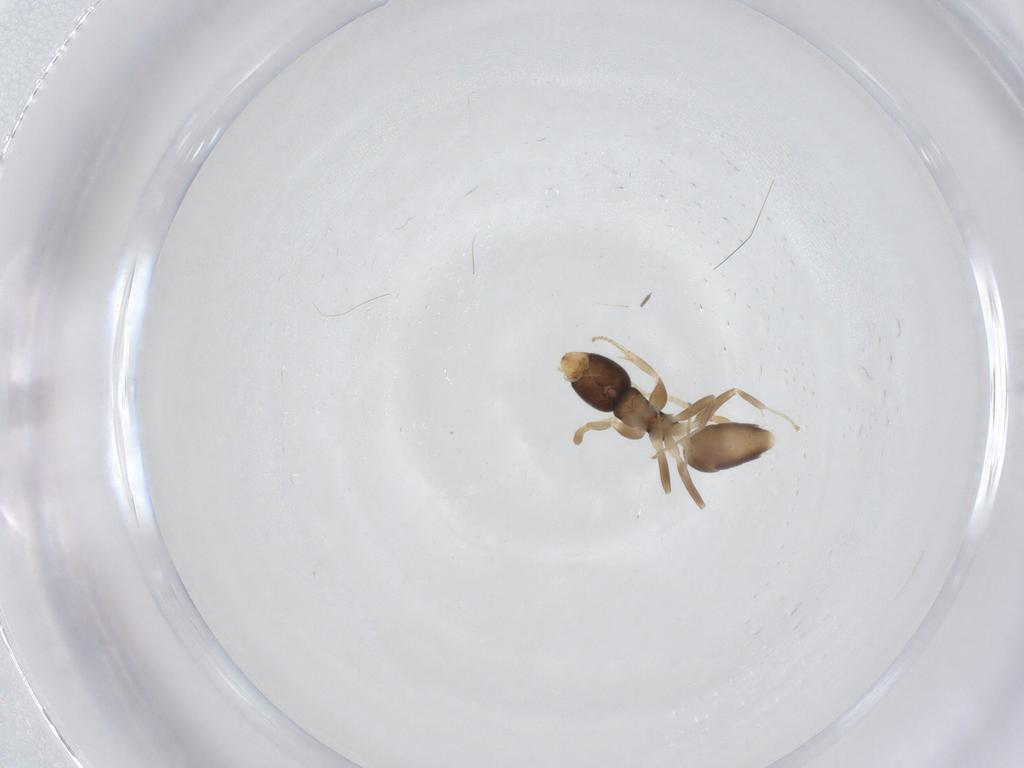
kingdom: Animalia
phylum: Arthropoda
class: Insecta
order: Hymenoptera
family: Formicidae
